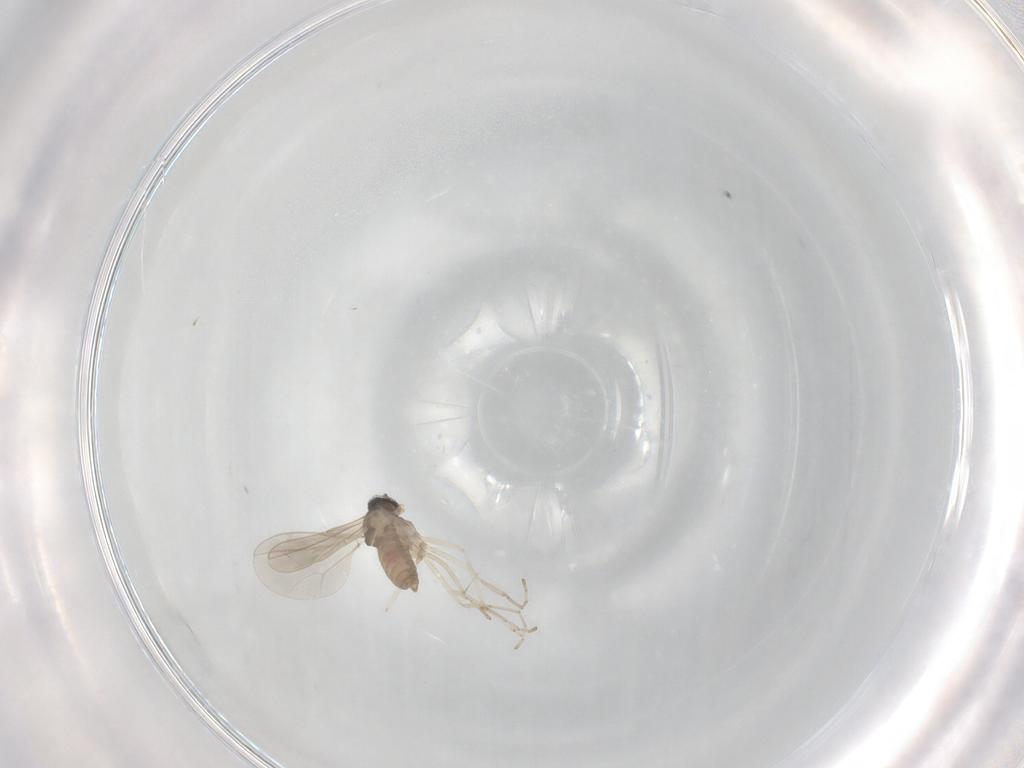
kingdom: Animalia
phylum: Arthropoda
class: Insecta
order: Diptera
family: Cecidomyiidae
